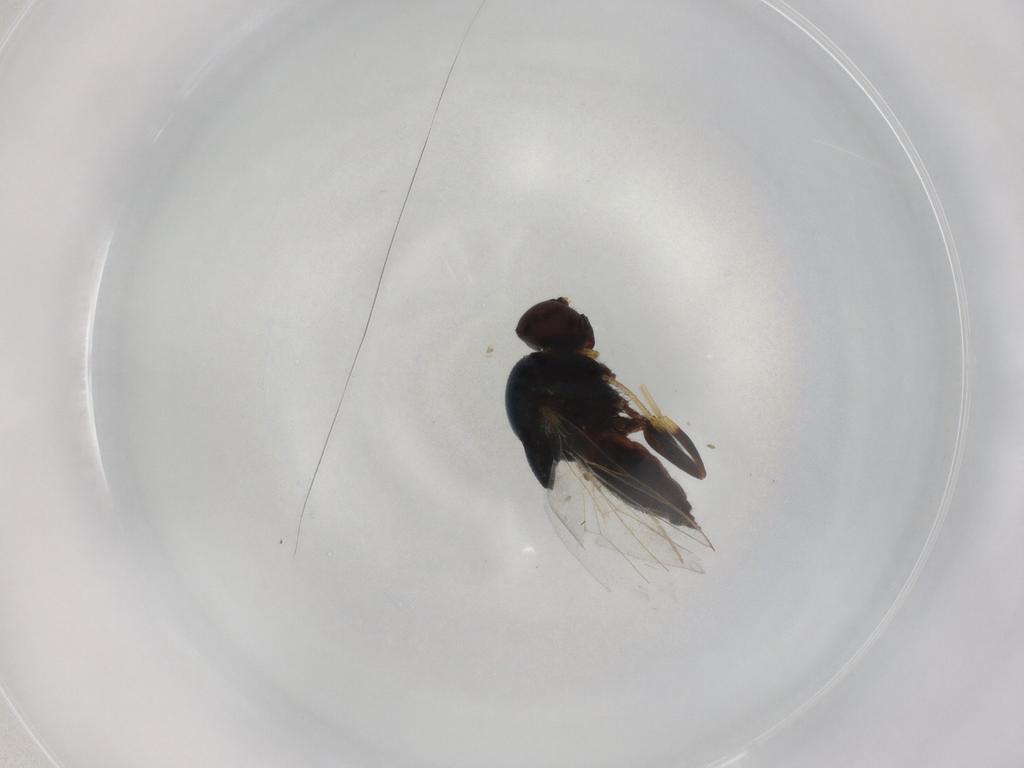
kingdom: Animalia
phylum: Arthropoda
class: Insecta
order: Diptera
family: Chloropidae
